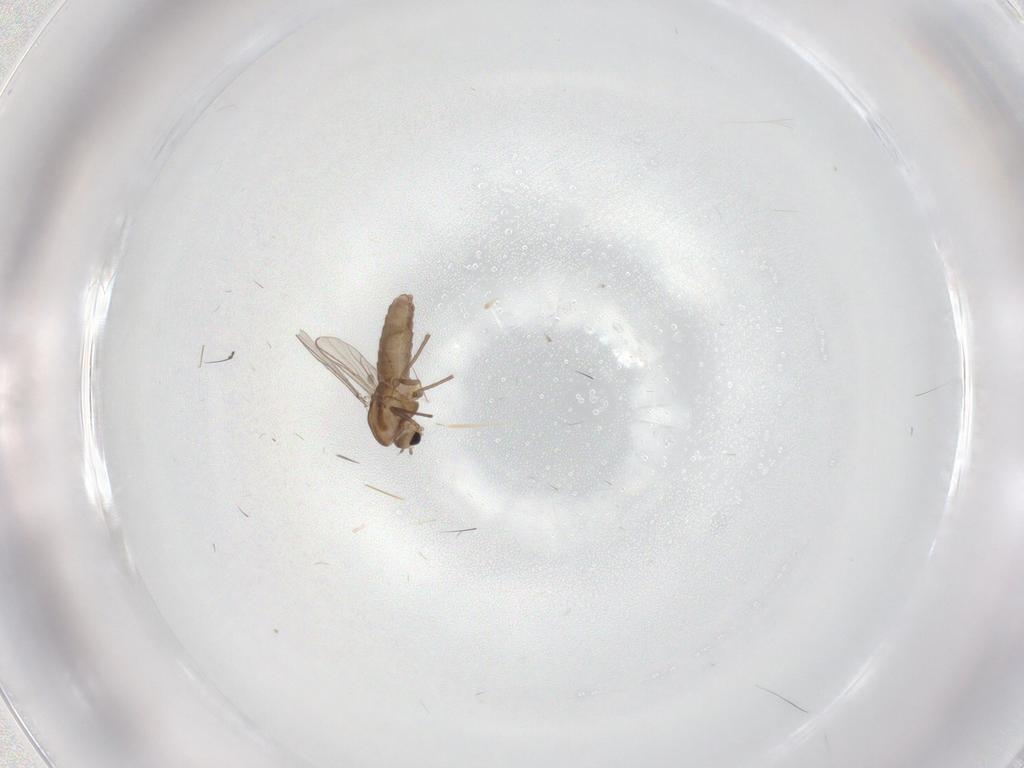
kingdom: Animalia
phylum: Arthropoda
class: Insecta
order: Diptera
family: Chironomidae
